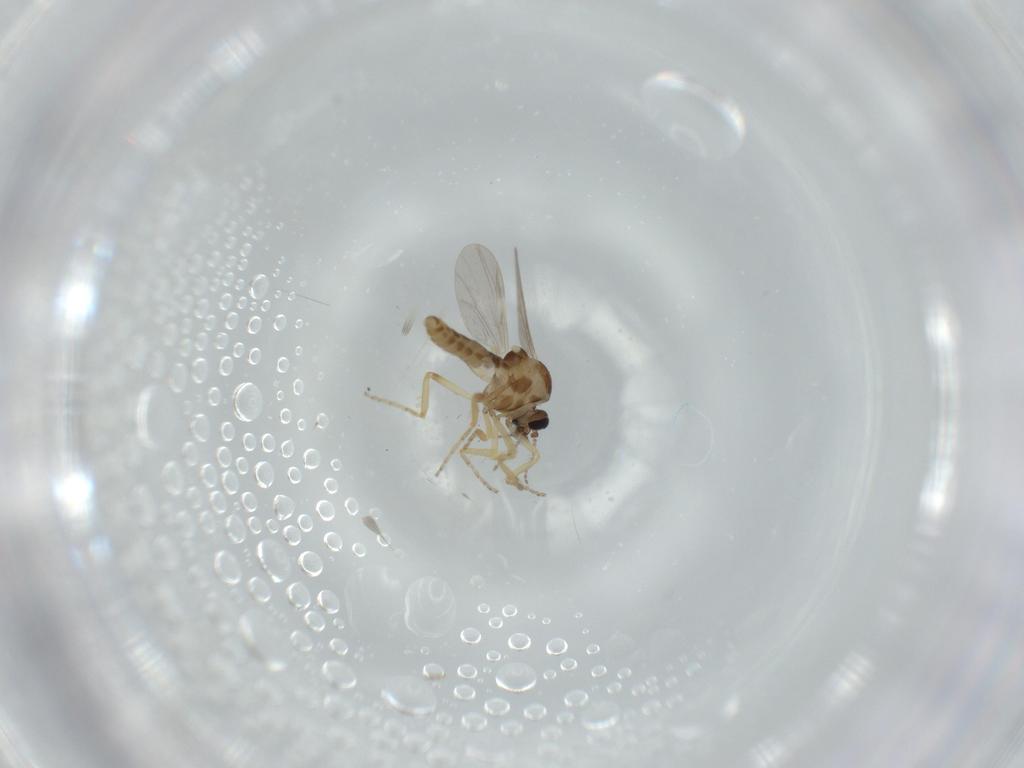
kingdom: Animalia
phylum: Arthropoda
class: Insecta
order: Diptera
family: Ceratopogonidae
